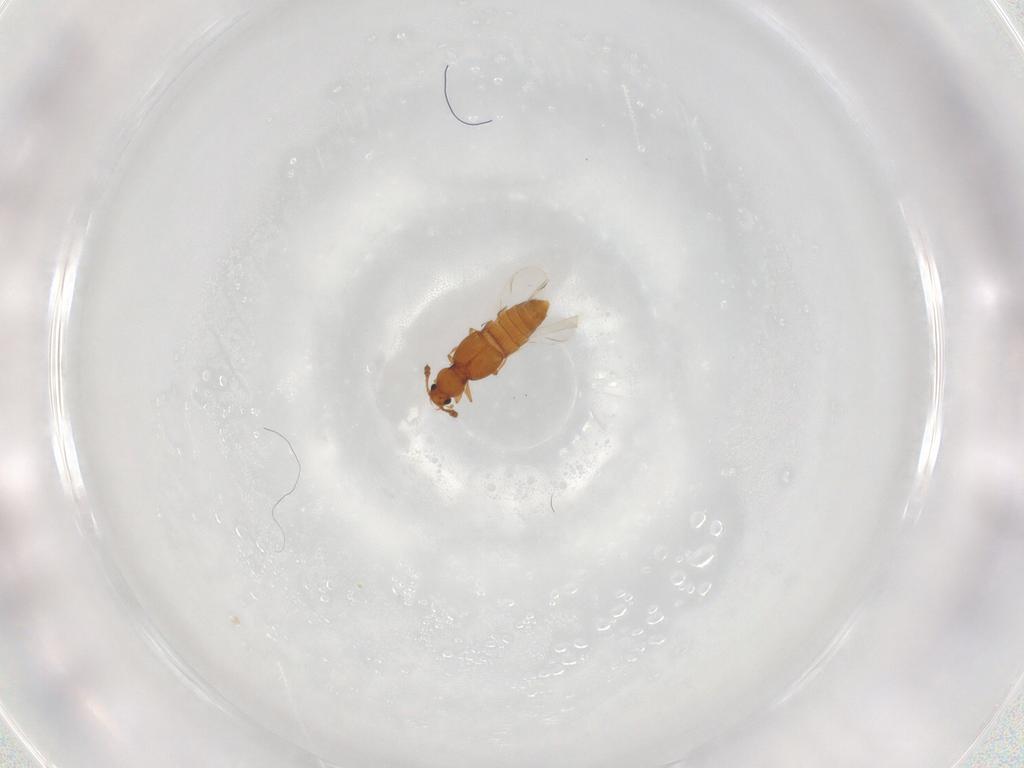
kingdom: Animalia
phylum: Arthropoda
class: Insecta
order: Coleoptera
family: Staphylinidae
